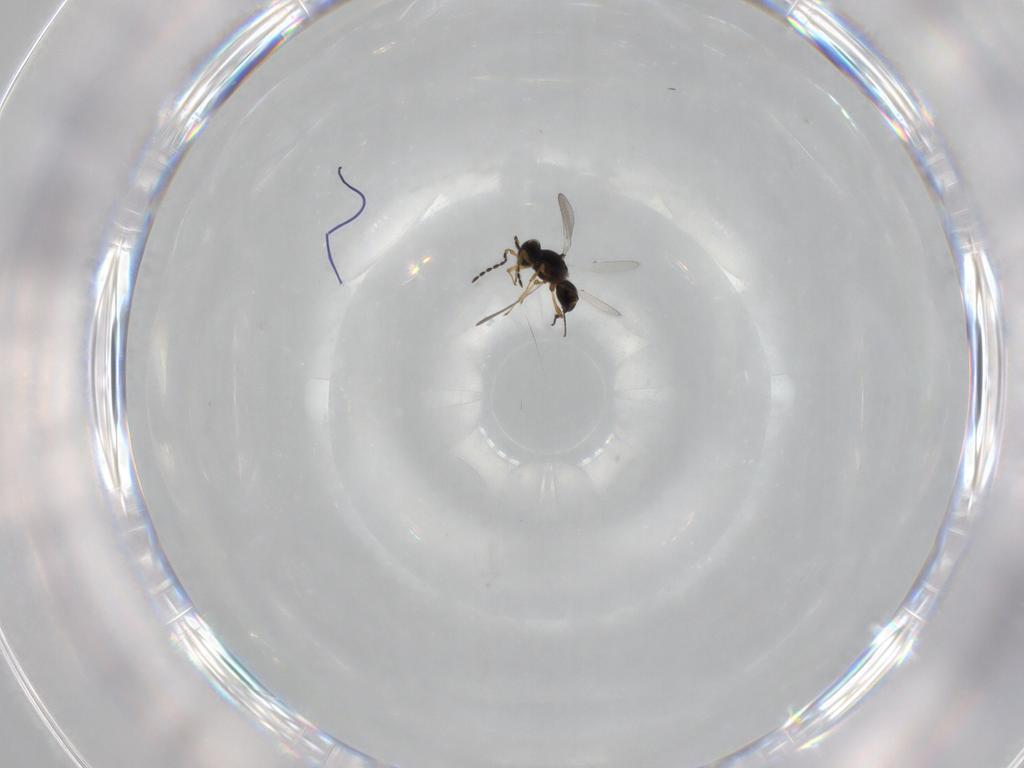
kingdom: Animalia
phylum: Arthropoda
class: Insecta
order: Hymenoptera
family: Platygastridae
